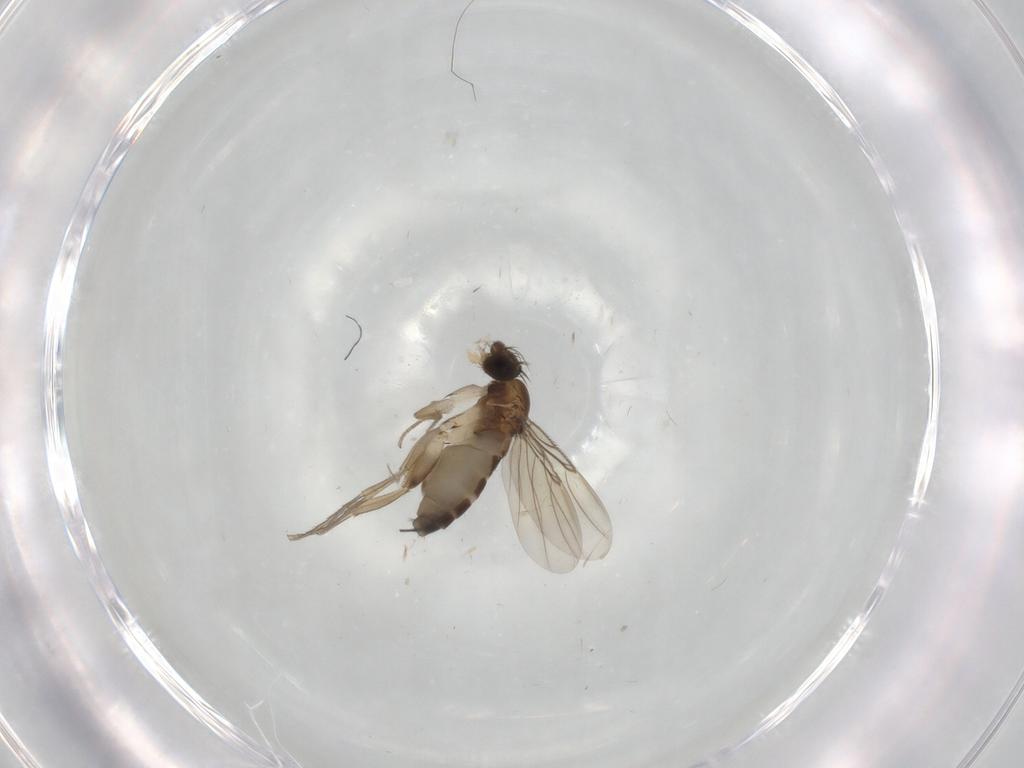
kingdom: Animalia
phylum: Arthropoda
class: Insecta
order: Diptera
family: Phoridae
